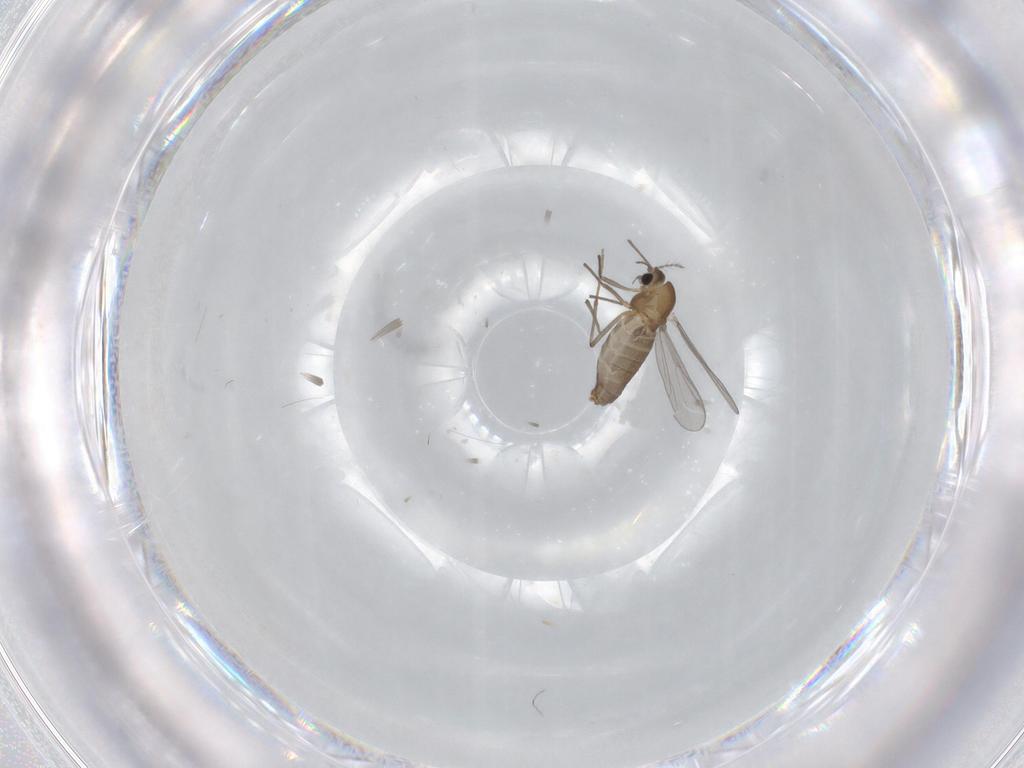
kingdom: Animalia
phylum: Arthropoda
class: Insecta
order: Diptera
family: Chironomidae
